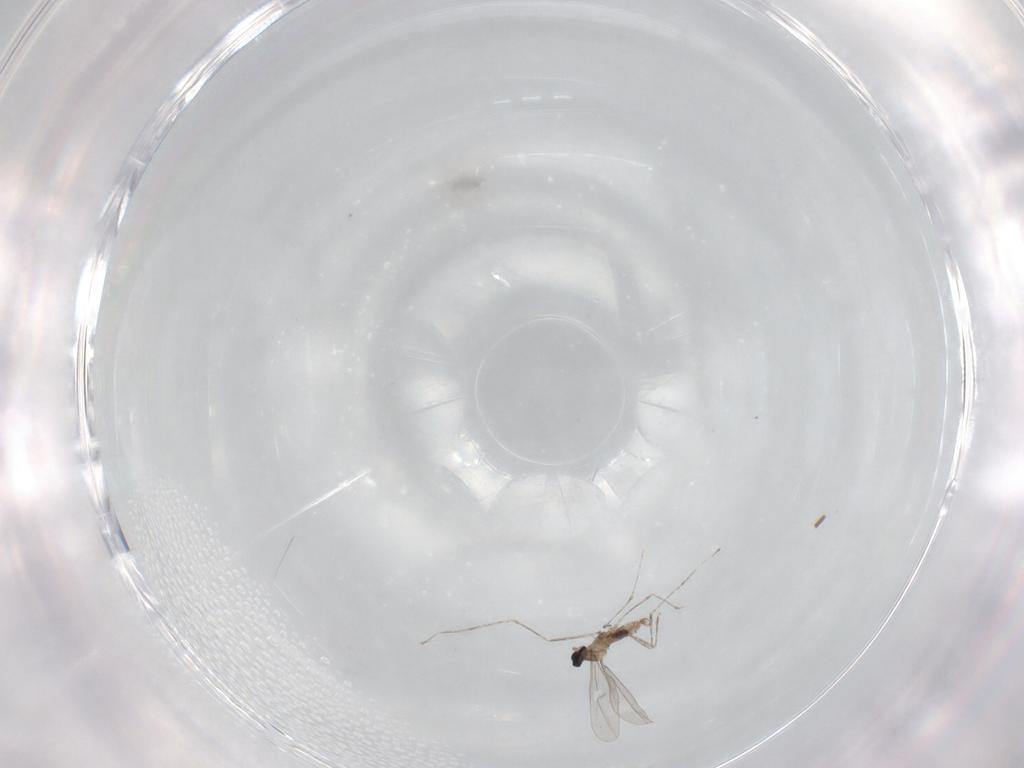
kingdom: Animalia
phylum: Arthropoda
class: Insecta
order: Diptera
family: Cecidomyiidae
